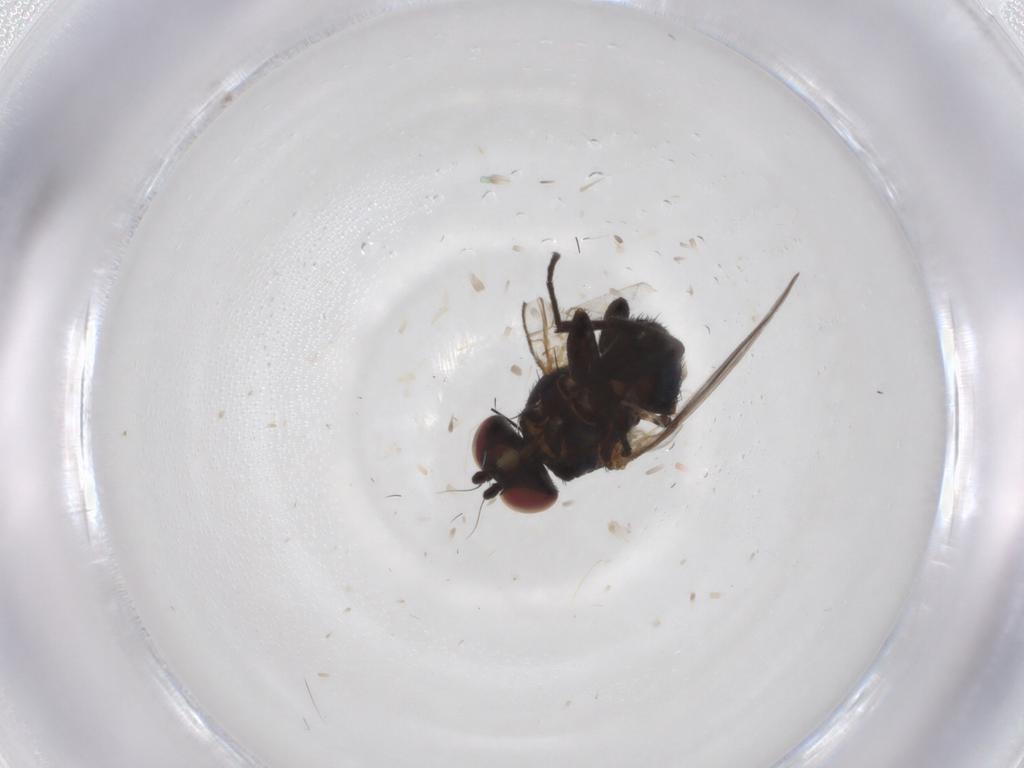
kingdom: Animalia
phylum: Arthropoda
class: Insecta
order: Diptera
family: Agromyzidae
